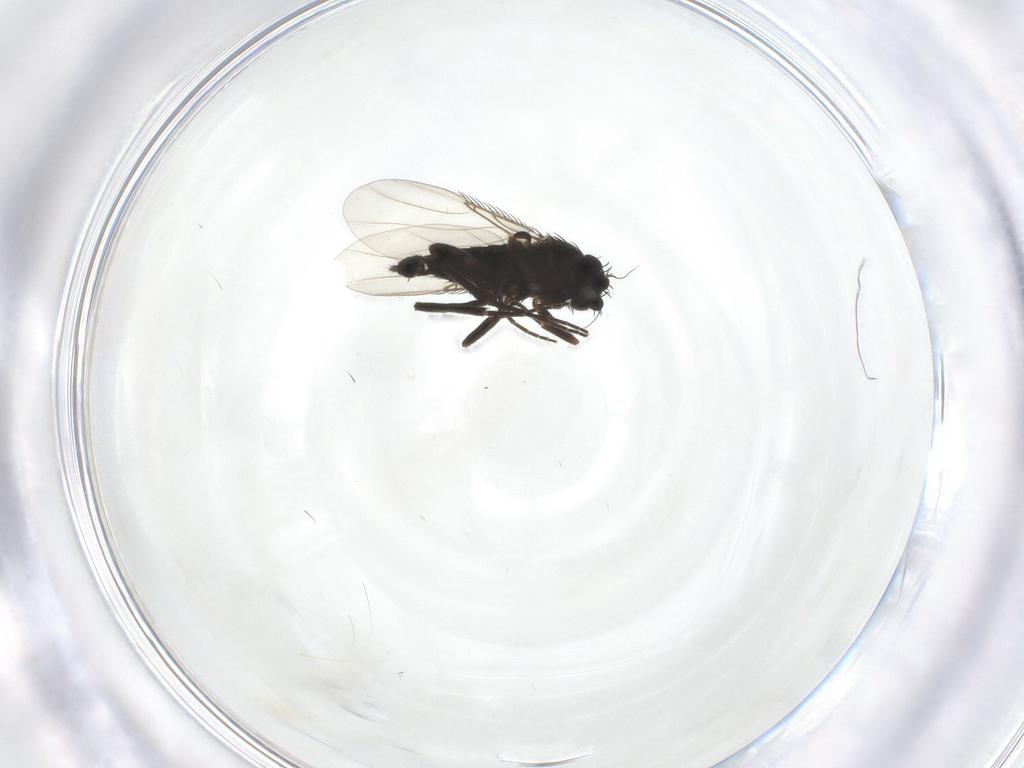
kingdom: Animalia
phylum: Arthropoda
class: Insecta
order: Diptera
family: Phoridae
